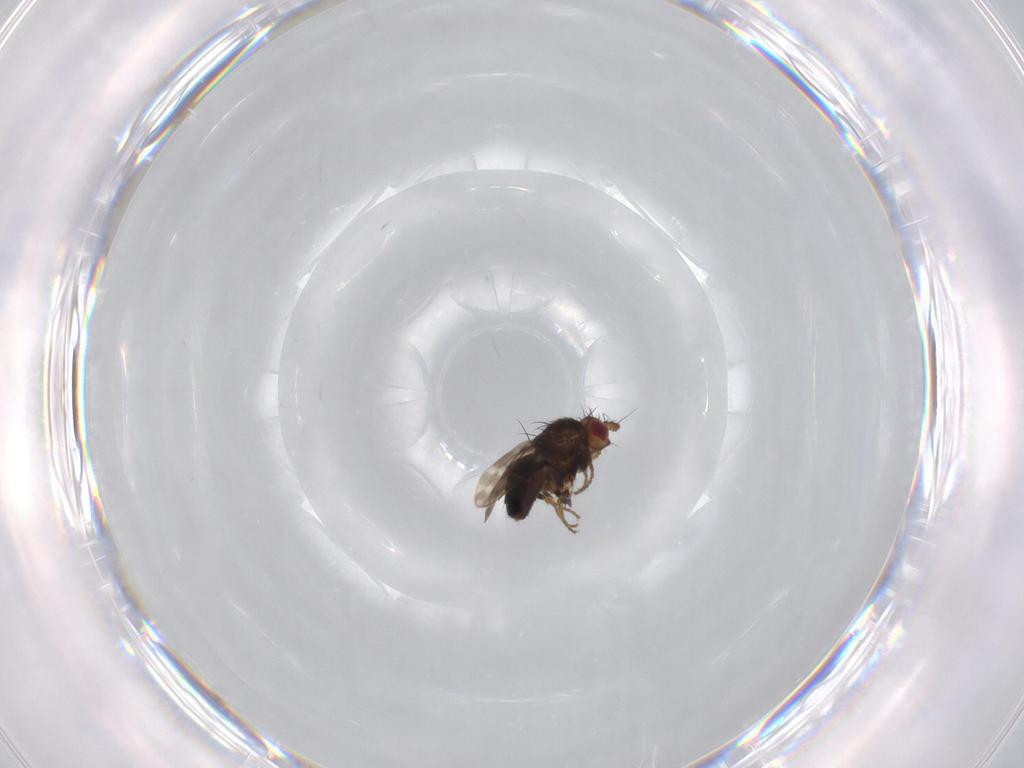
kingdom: Animalia
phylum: Arthropoda
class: Insecta
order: Diptera
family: Sphaeroceridae
